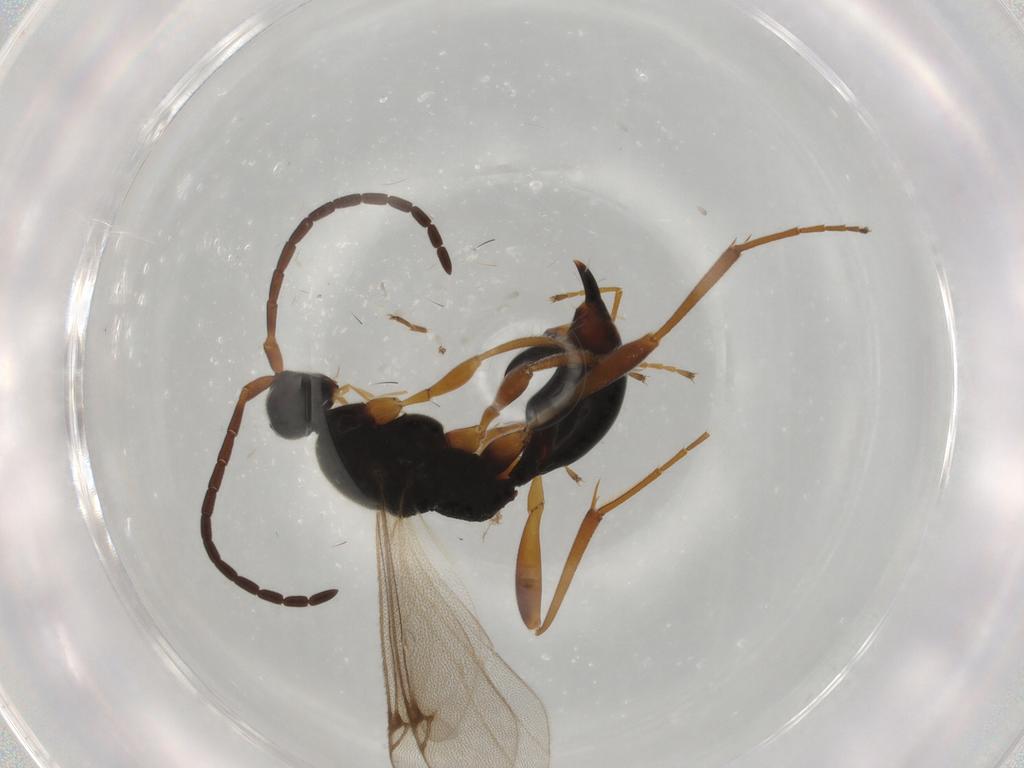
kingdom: Animalia
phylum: Arthropoda
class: Insecta
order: Hymenoptera
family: Proctotrupidae
